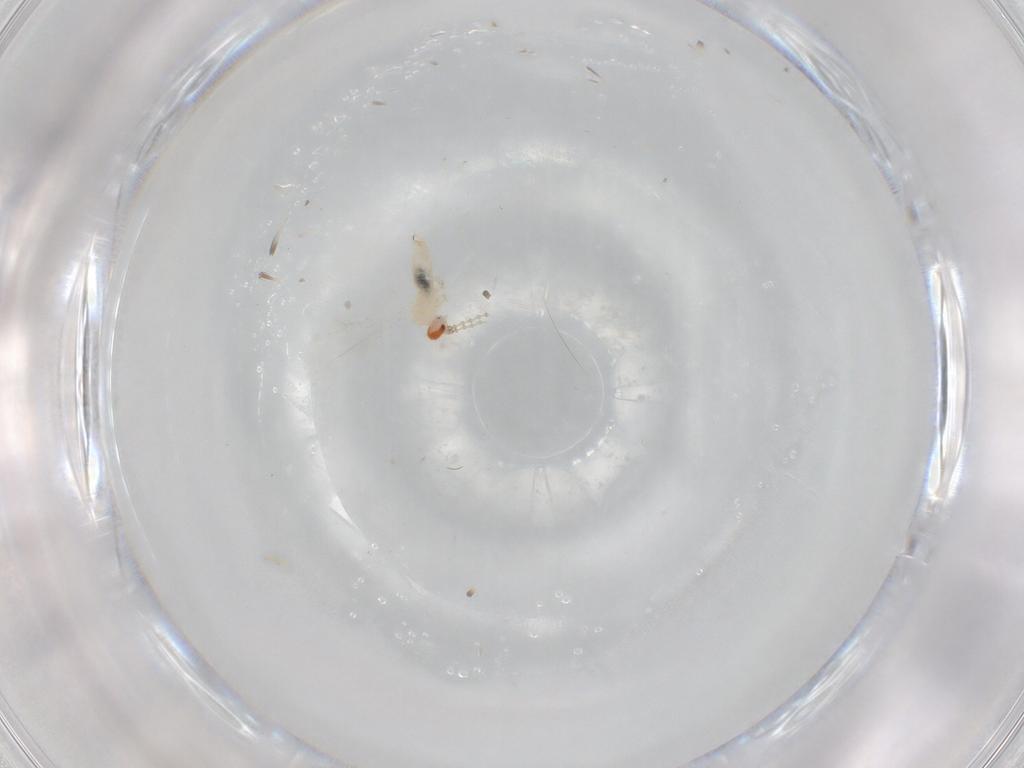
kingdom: Animalia
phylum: Arthropoda
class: Insecta
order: Diptera
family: Cecidomyiidae
